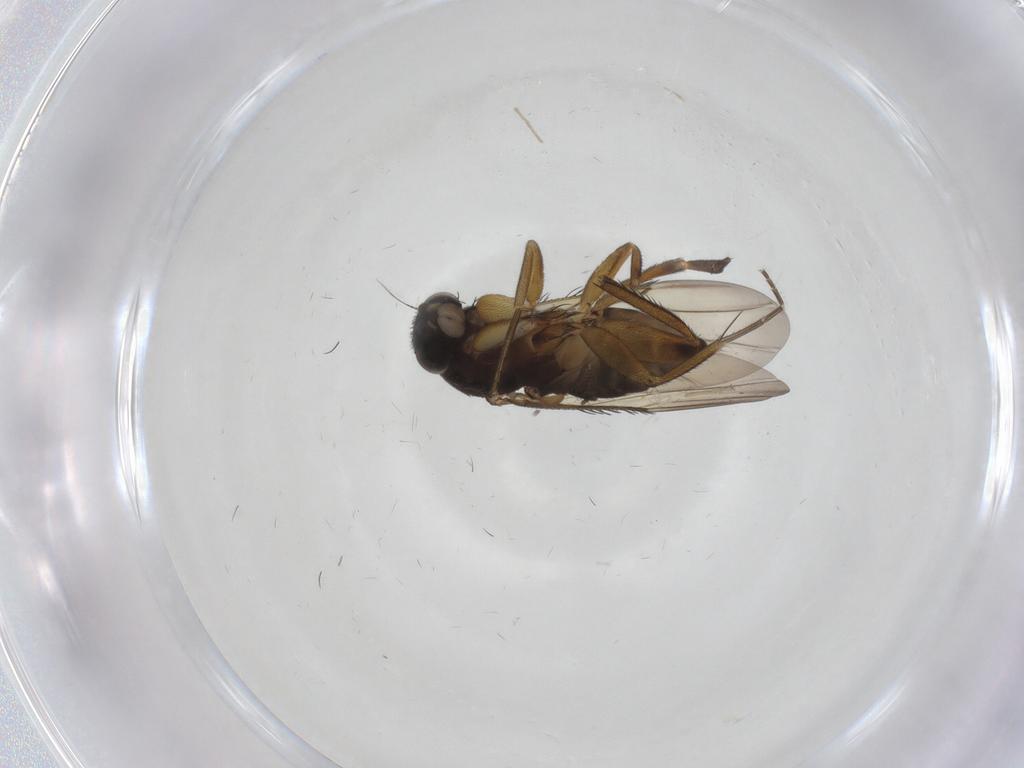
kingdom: Animalia
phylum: Arthropoda
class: Insecta
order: Diptera
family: Phoridae
